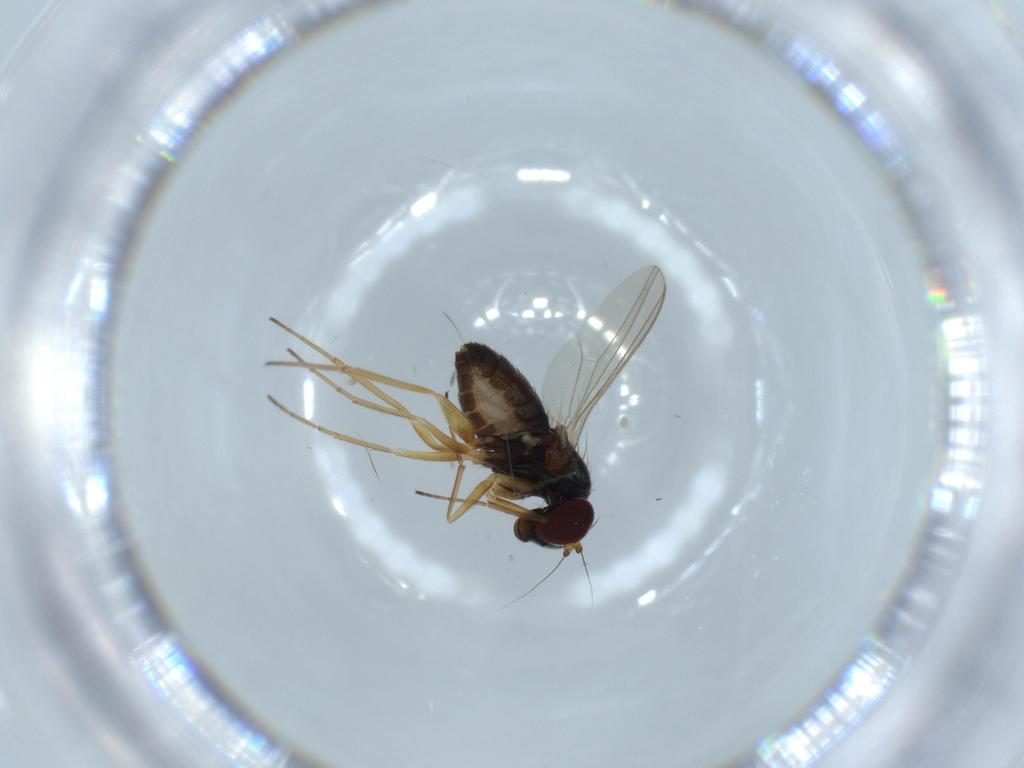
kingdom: Animalia
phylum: Arthropoda
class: Insecta
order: Diptera
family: Dolichopodidae
